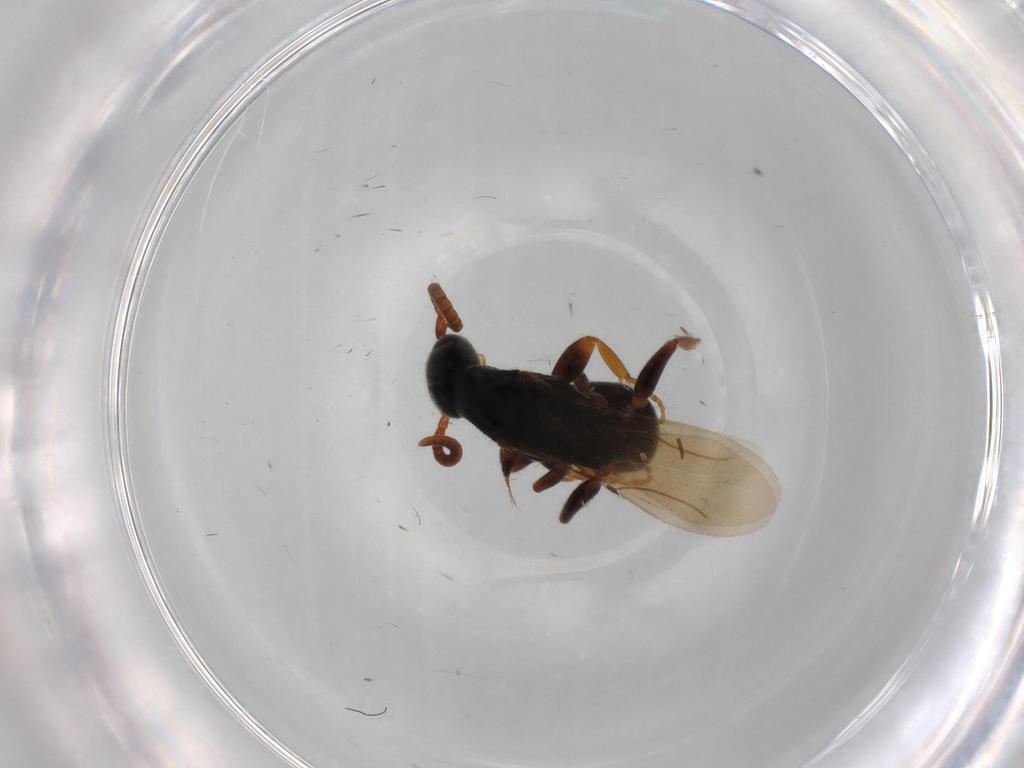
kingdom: Animalia
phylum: Arthropoda
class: Insecta
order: Hymenoptera
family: Bethylidae
